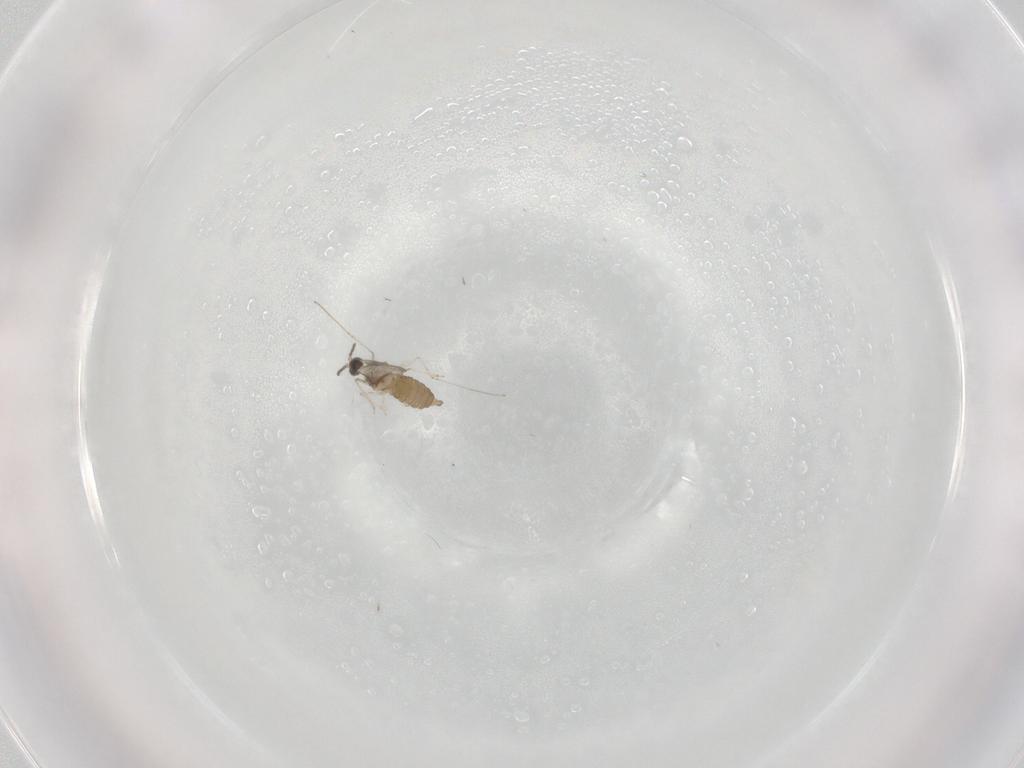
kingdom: Animalia
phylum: Arthropoda
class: Insecta
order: Diptera
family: Cecidomyiidae
